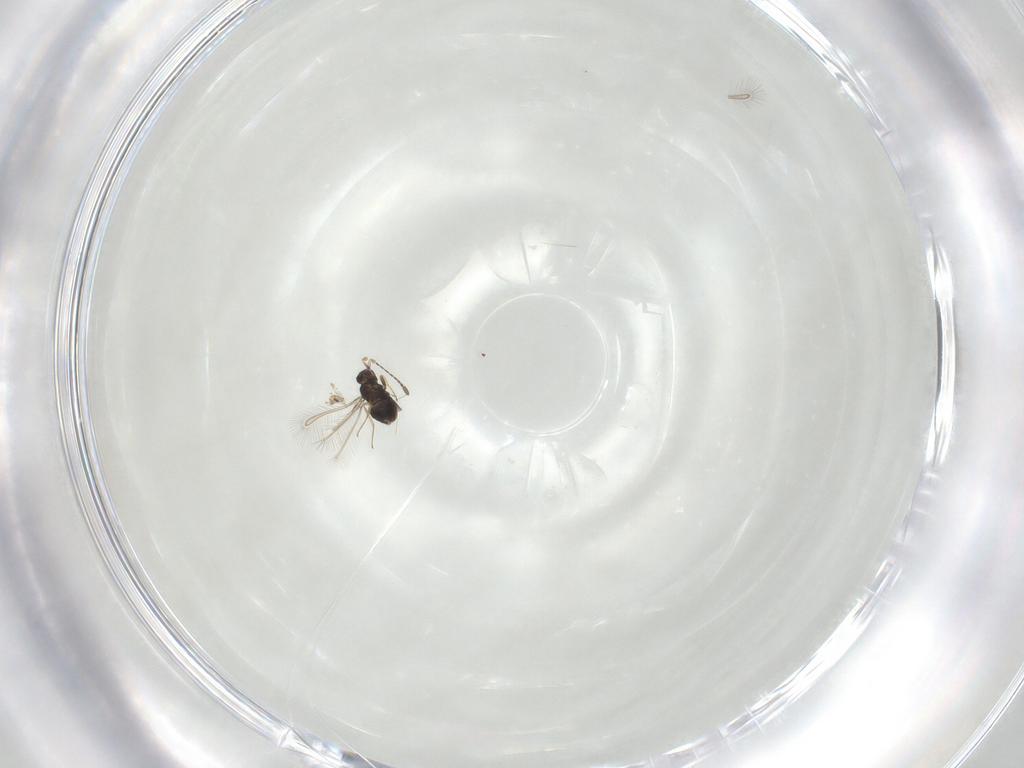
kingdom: Animalia
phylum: Arthropoda
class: Insecta
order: Hymenoptera
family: Mymaridae
